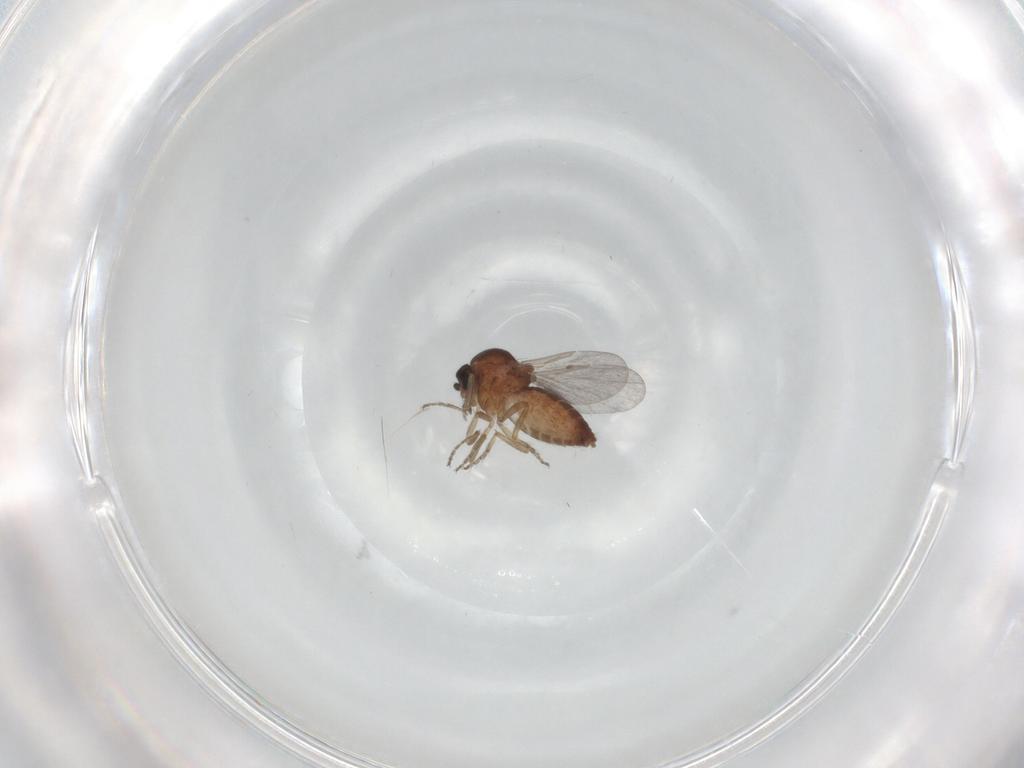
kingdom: Animalia
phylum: Arthropoda
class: Insecta
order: Diptera
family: Ceratopogonidae
